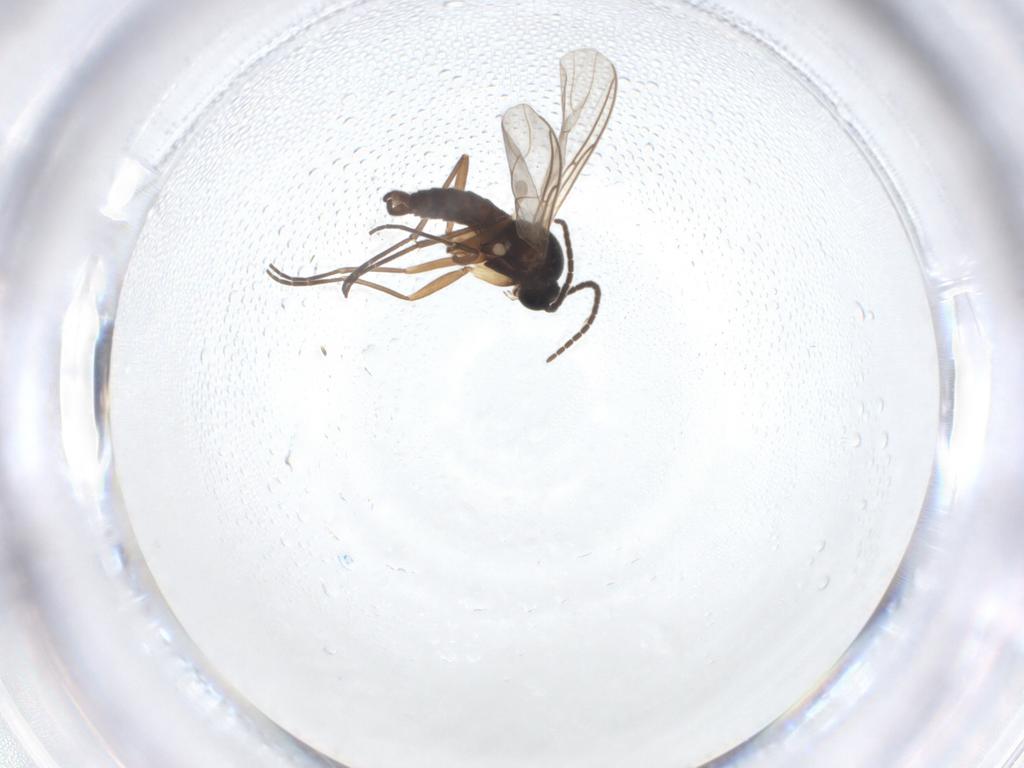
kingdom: Animalia
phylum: Arthropoda
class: Insecta
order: Diptera
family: Sciaridae
